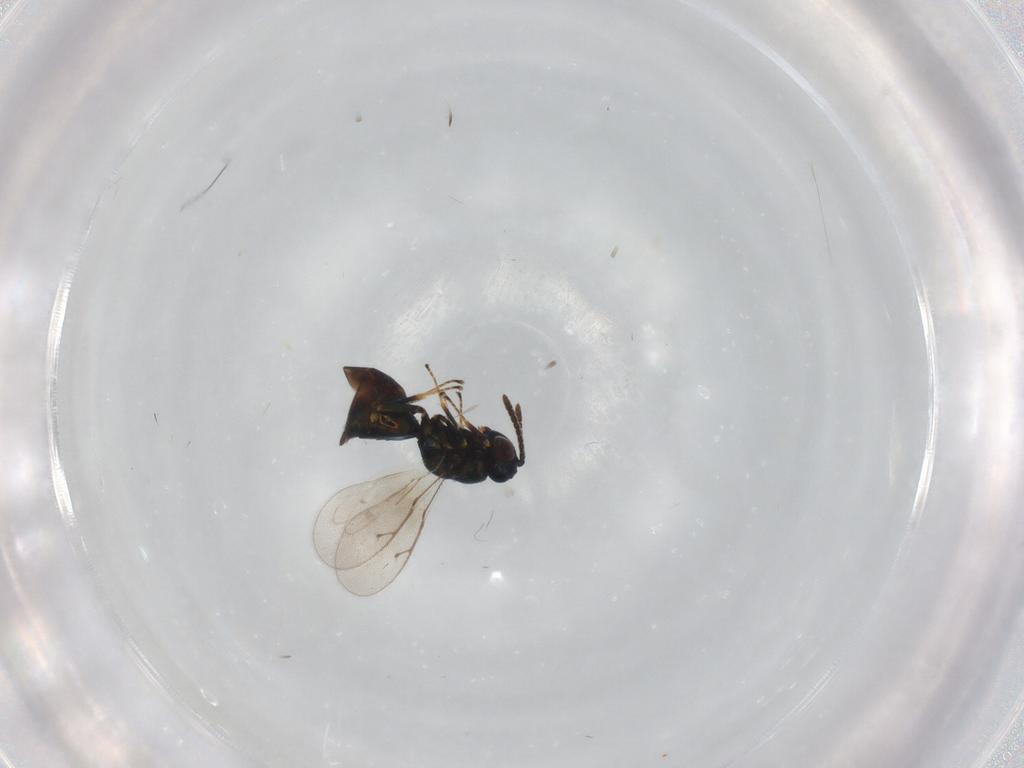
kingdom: Animalia
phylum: Arthropoda
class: Insecta
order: Hymenoptera
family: Pteromalidae
